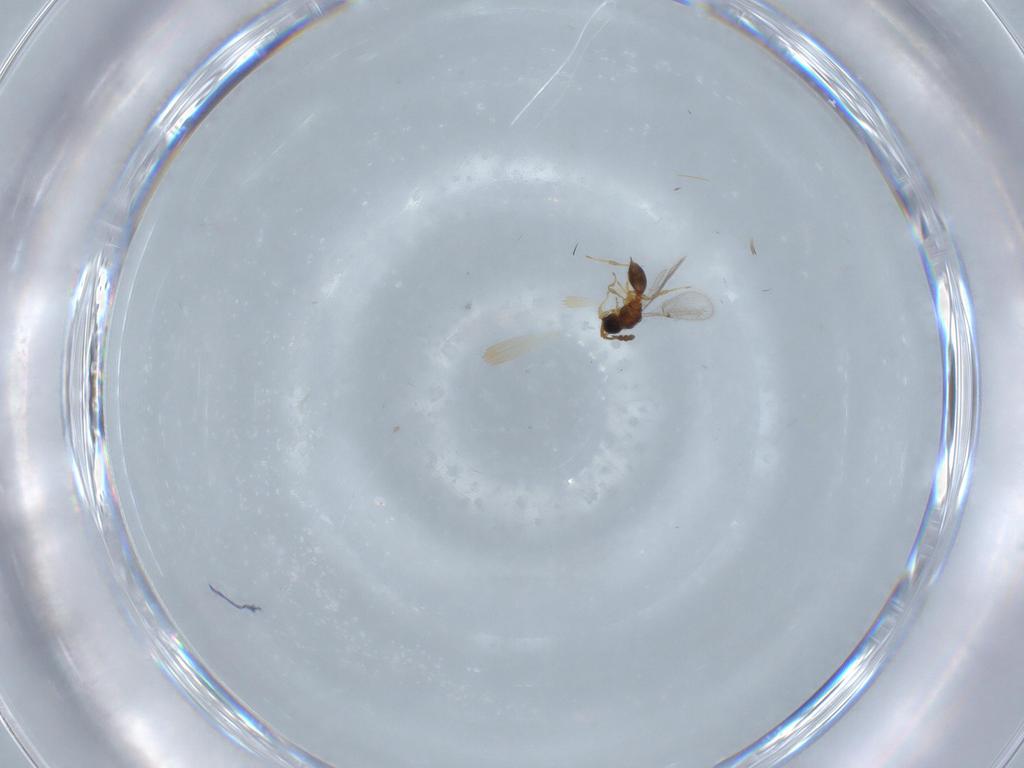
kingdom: Animalia
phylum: Arthropoda
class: Insecta
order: Hymenoptera
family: Diapriidae
